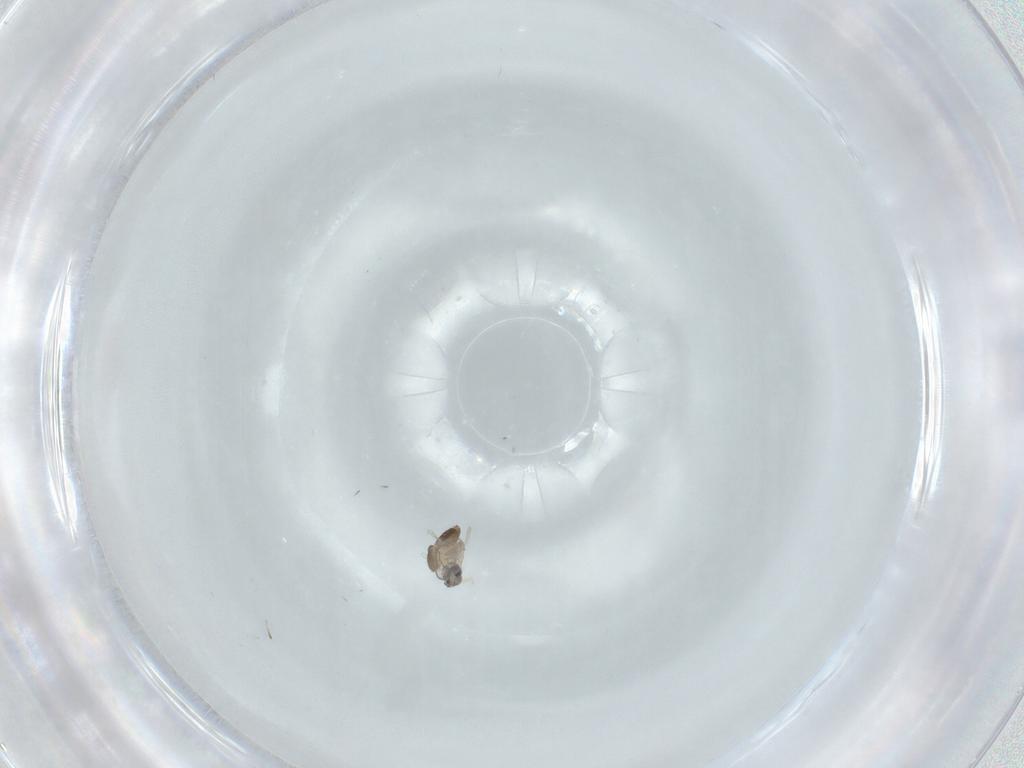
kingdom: Animalia
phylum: Arthropoda
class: Insecta
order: Diptera
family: Cecidomyiidae
